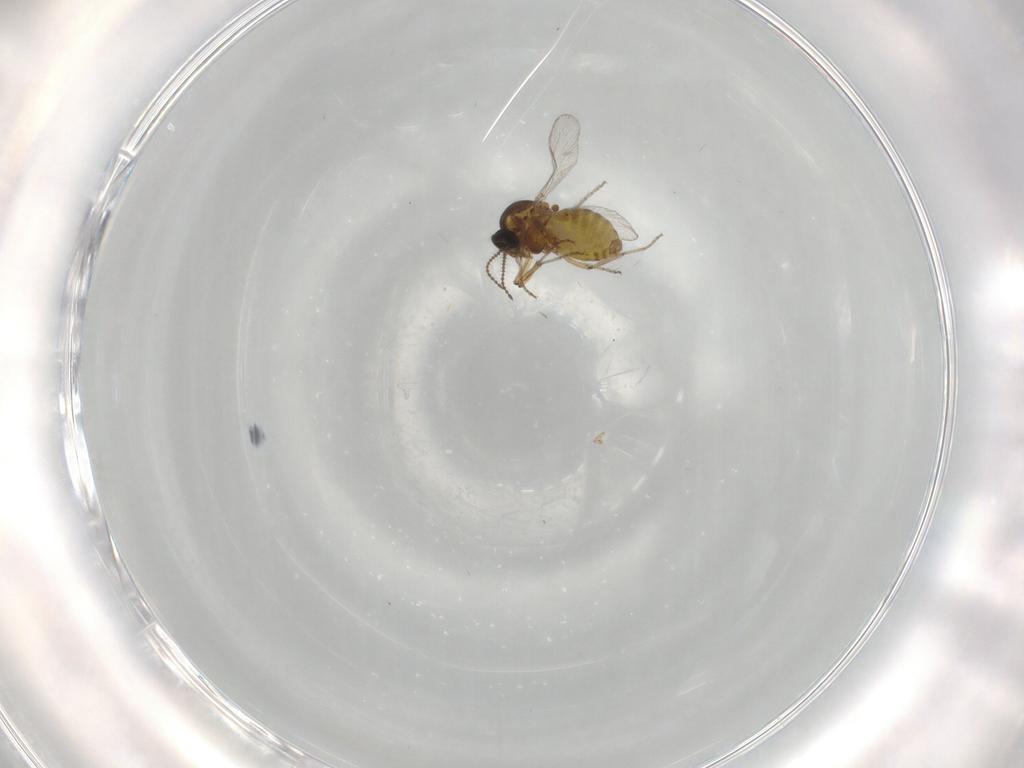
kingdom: Animalia
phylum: Arthropoda
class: Insecta
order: Diptera
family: Ceratopogonidae
